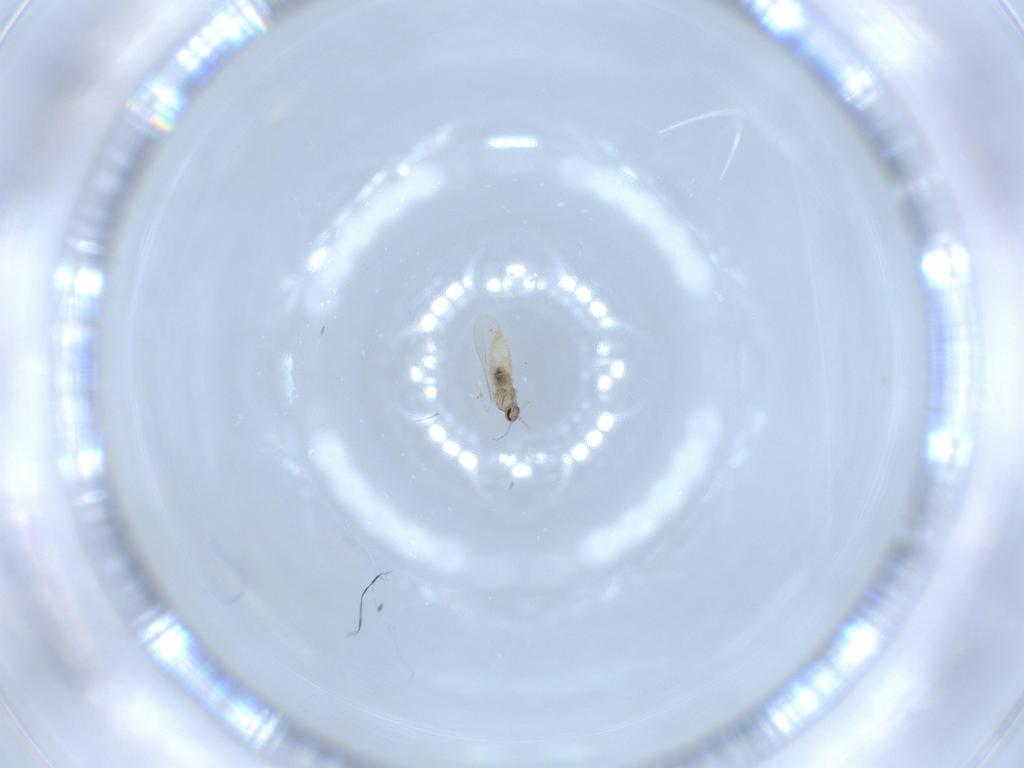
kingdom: Animalia
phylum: Arthropoda
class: Insecta
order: Diptera
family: Cecidomyiidae
